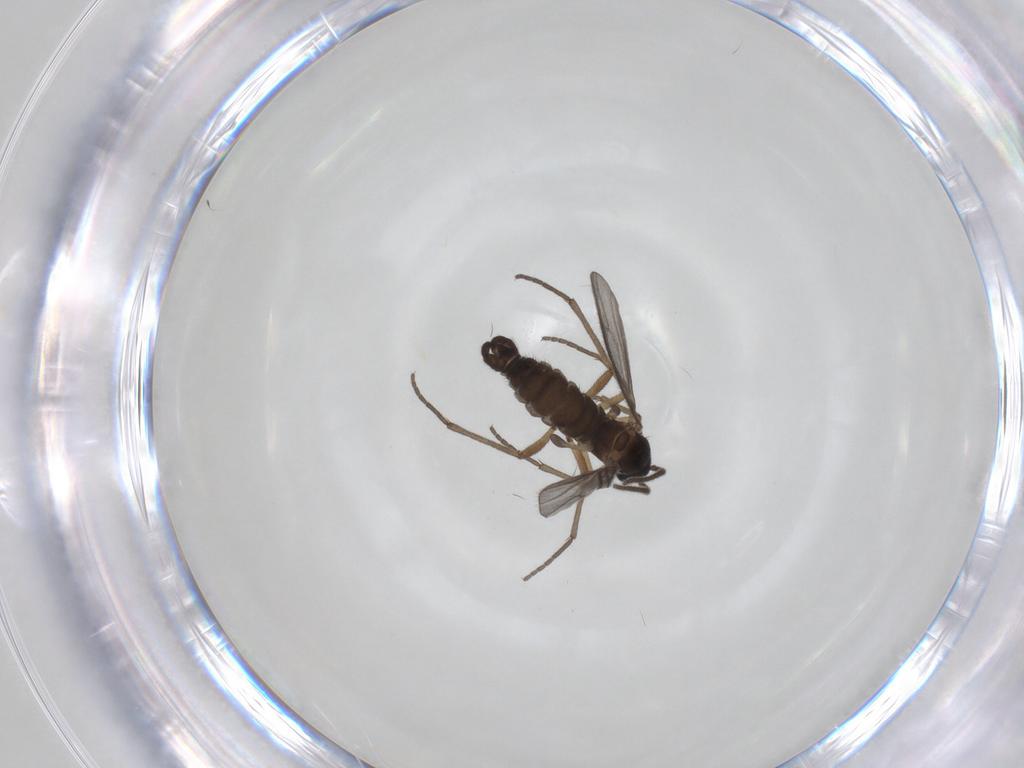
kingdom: Animalia
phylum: Arthropoda
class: Insecta
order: Diptera
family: Sciaridae
